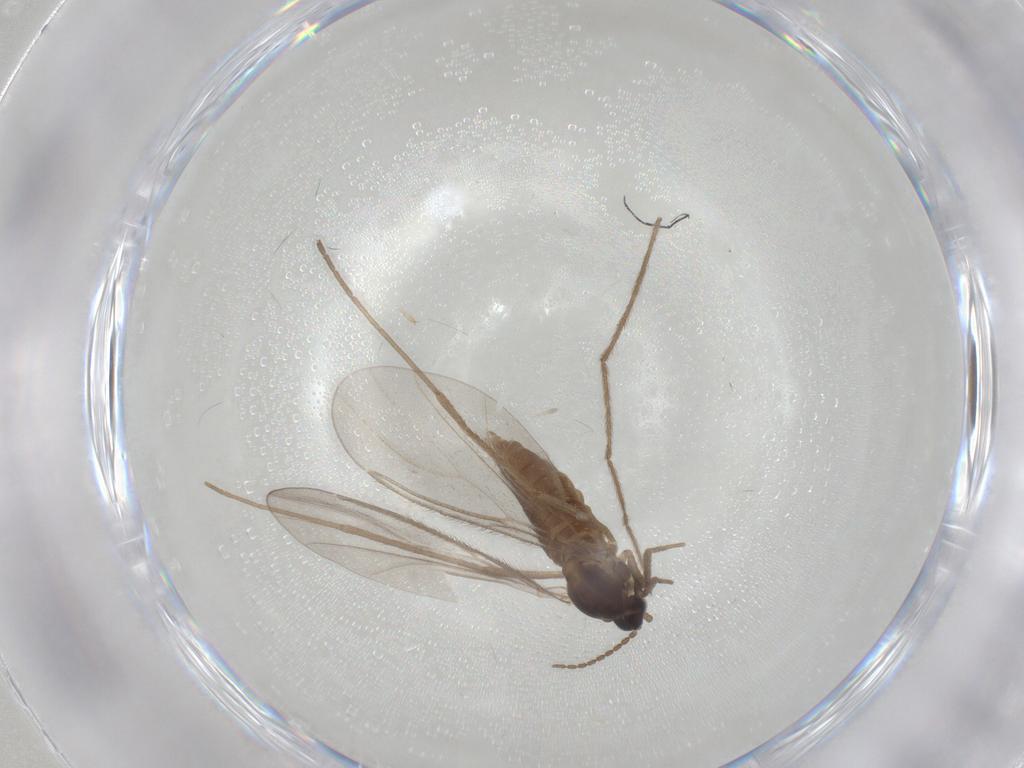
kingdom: Animalia
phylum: Arthropoda
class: Insecta
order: Diptera
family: Cecidomyiidae
